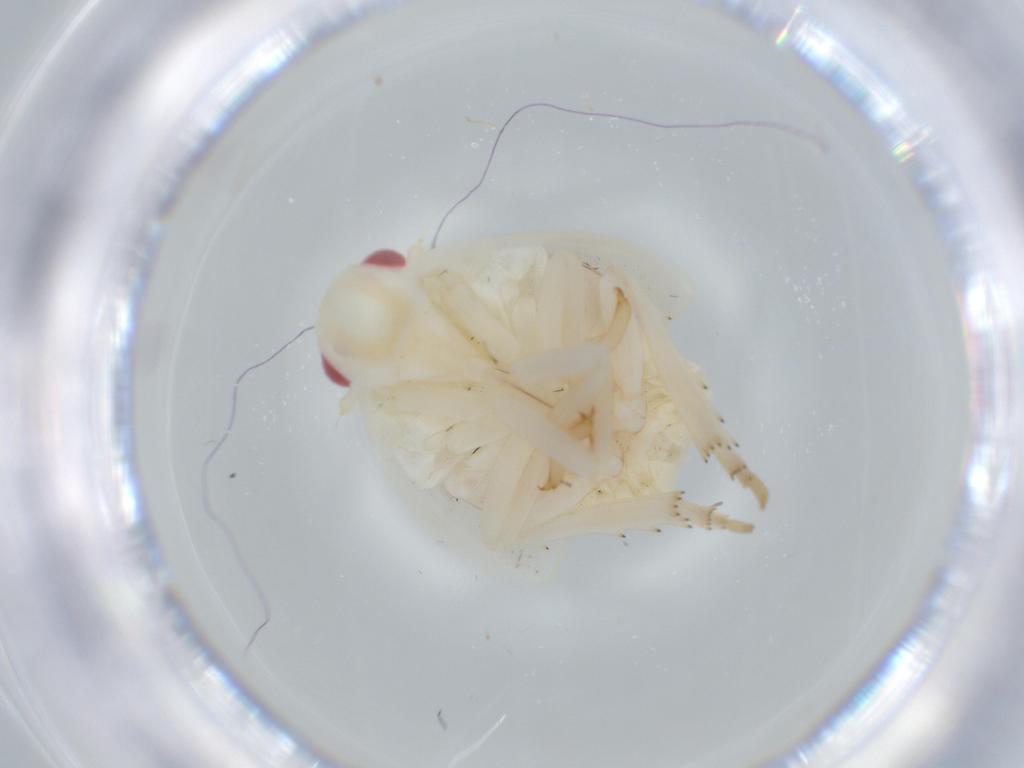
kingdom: Animalia
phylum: Arthropoda
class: Insecta
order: Hemiptera
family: Flatidae
